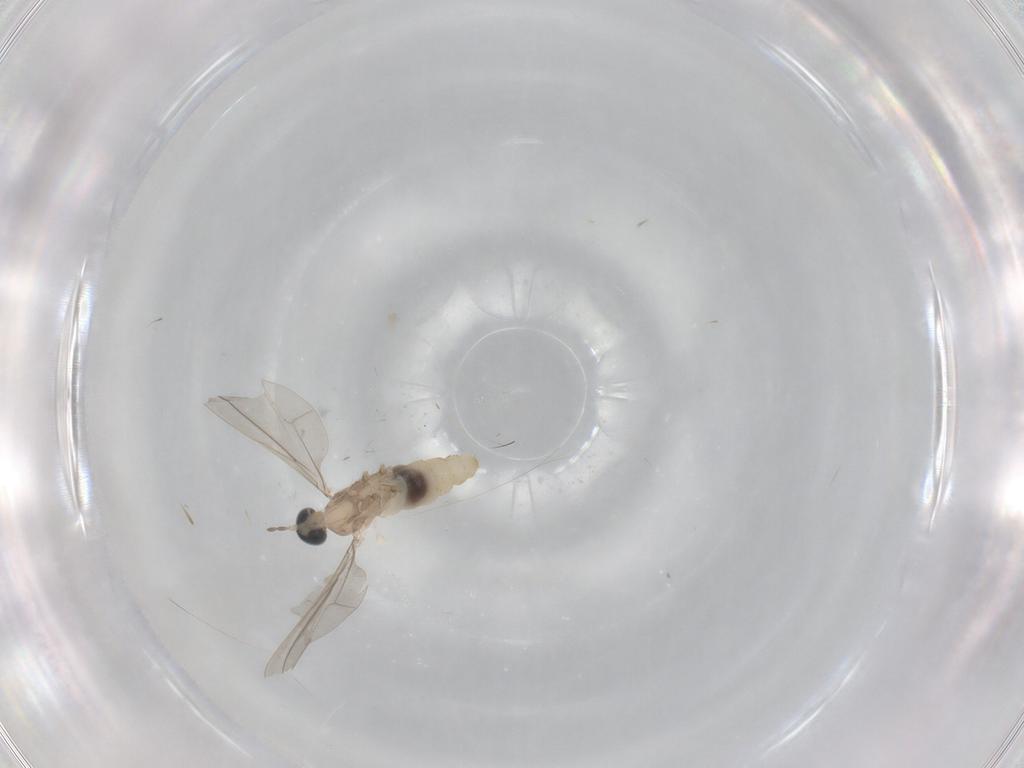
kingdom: Animalia
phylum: Arthropoda
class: Insecta
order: Diptera
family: Cecidomyiidae
